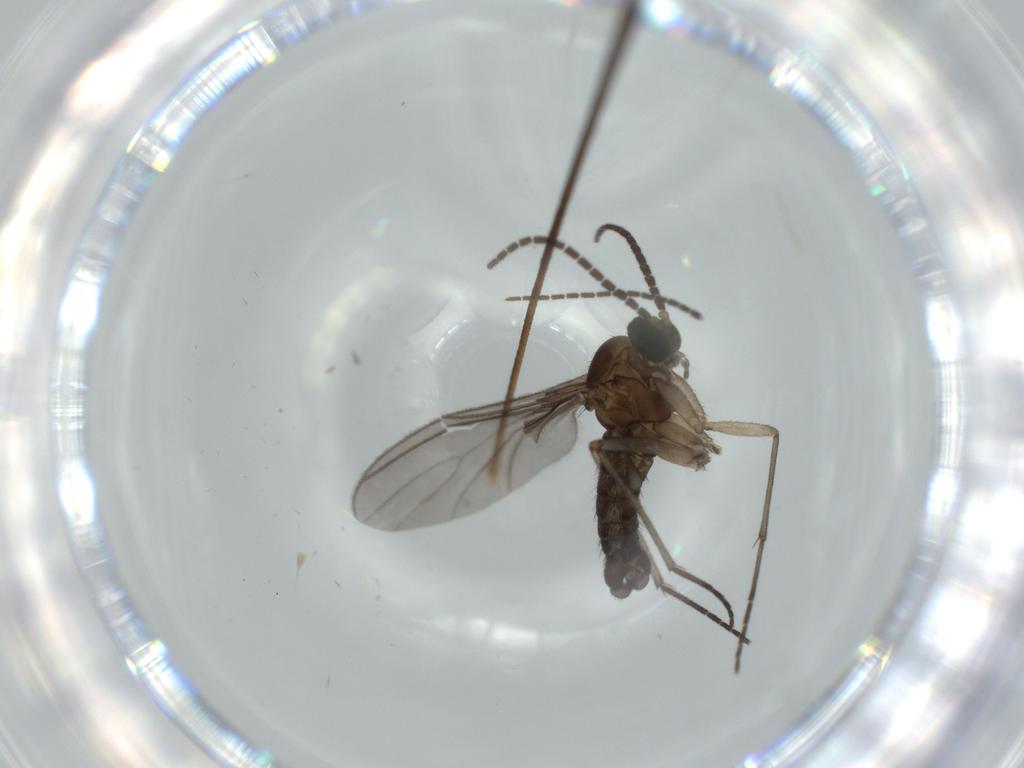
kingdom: Animalia
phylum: Arthropoda
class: Insecta
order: Diptera
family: Sciaridae
